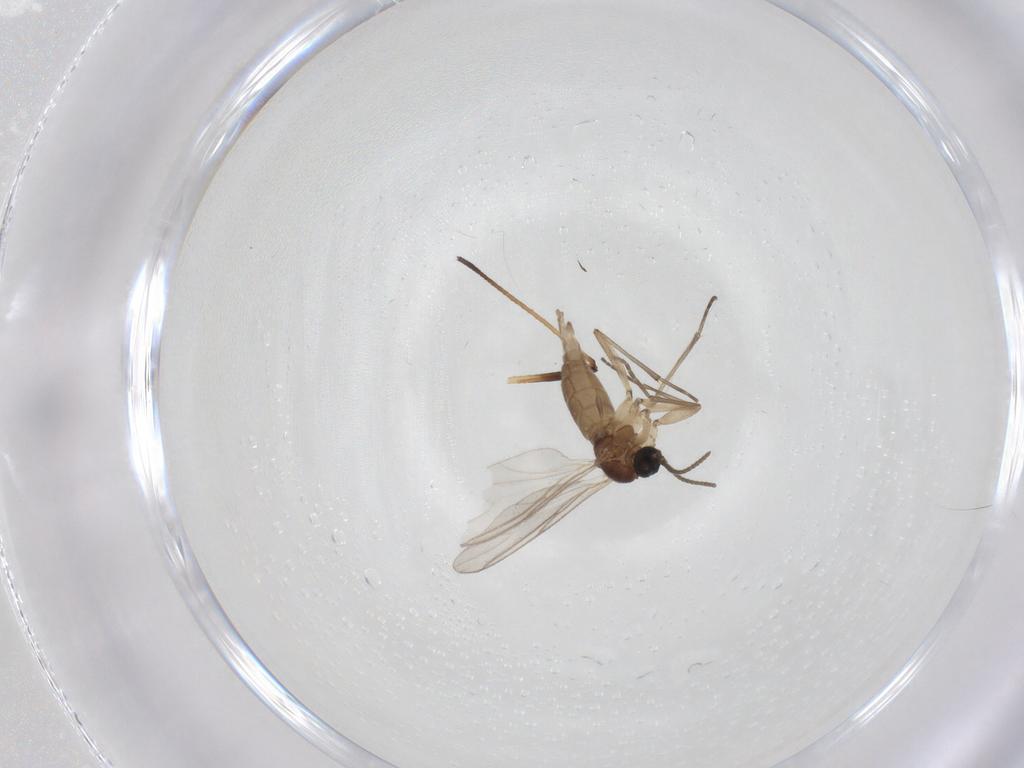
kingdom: Animalia
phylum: Arthropoda
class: Insecta
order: Diptera
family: Sciaridae
